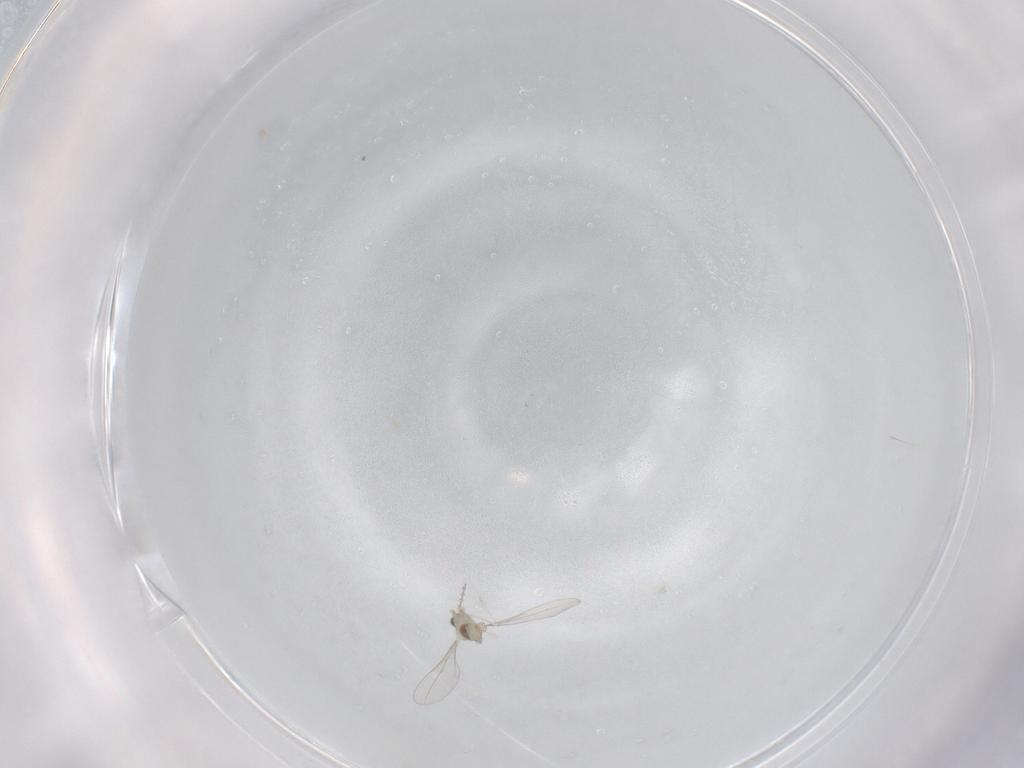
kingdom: Animalia
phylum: Arthropoda
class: Insecta
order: Diptera
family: Cecidomyiidae
